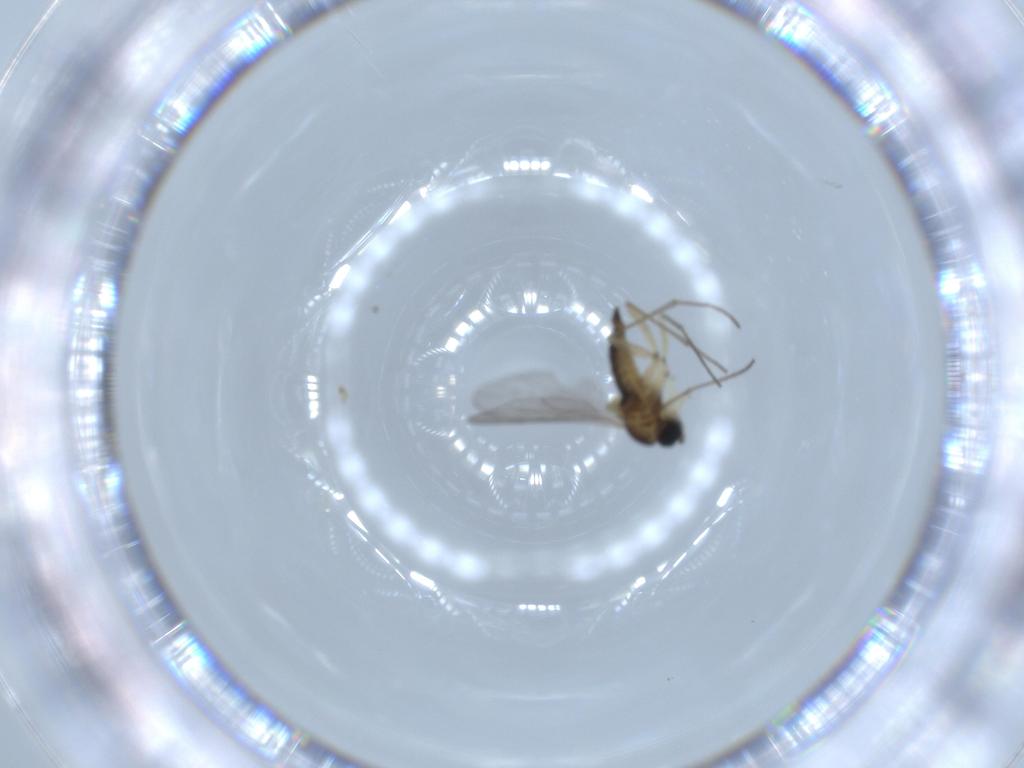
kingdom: Animalia
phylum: Arthropoda
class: Insecta
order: Diptera
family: Sciaridae
